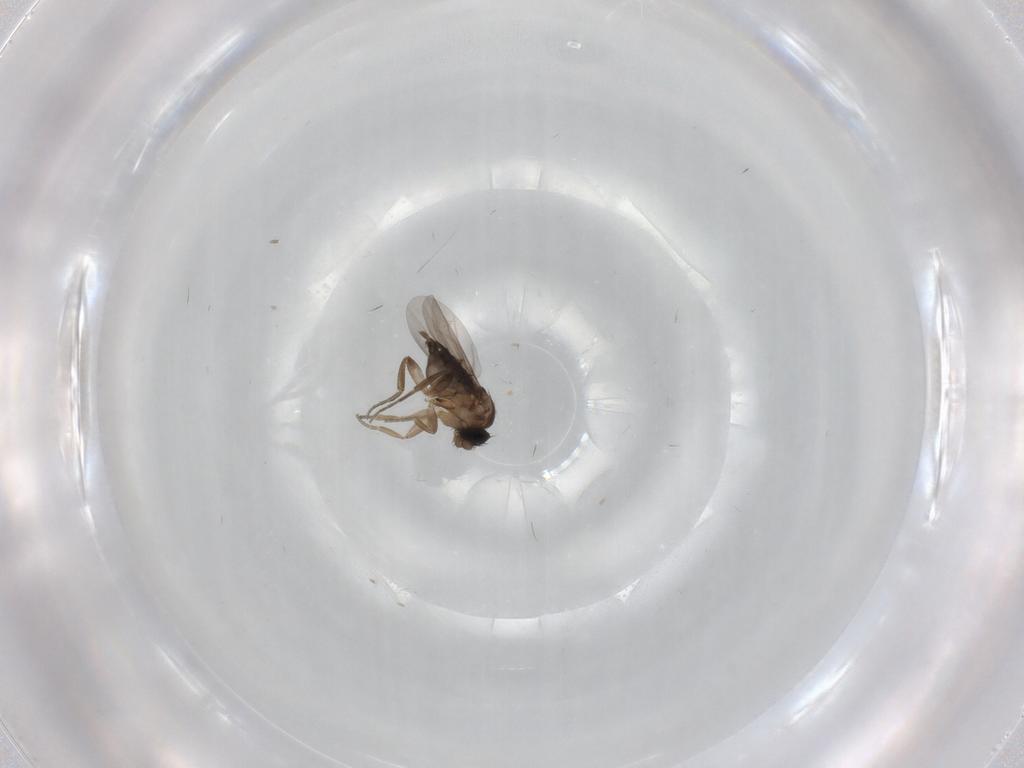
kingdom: Animalia
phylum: Arthropoda
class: Insecta
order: Diptera
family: Phoridae
